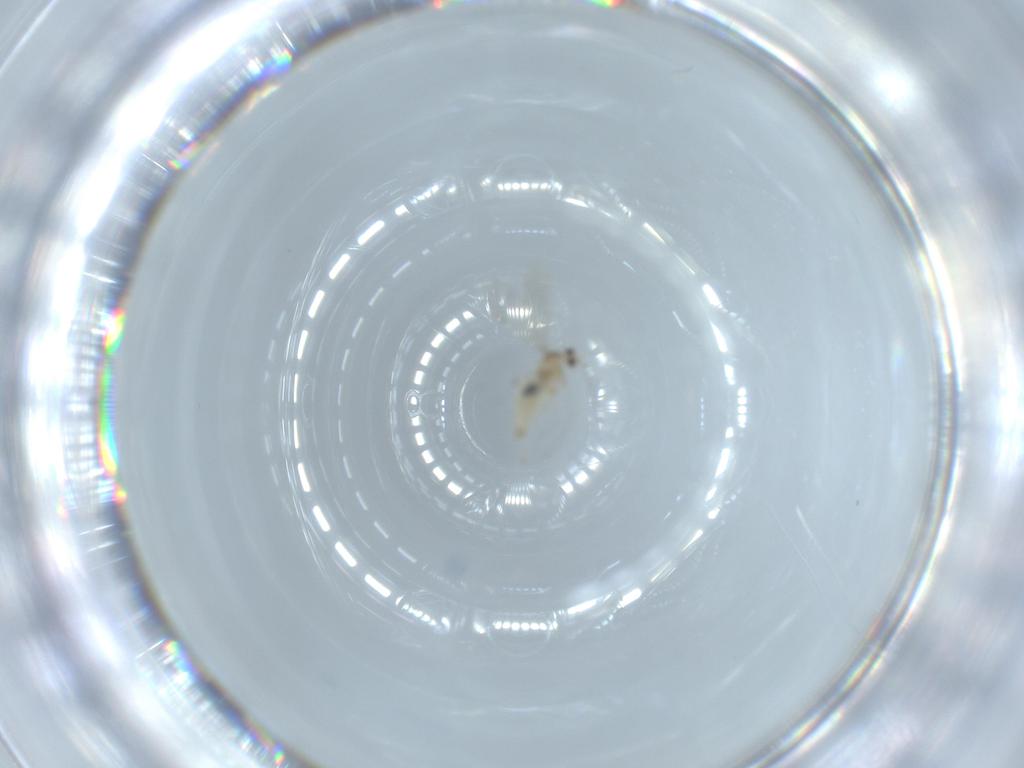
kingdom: Animalia
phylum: Arthropoda
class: Insecta
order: Diptera
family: Cecidomyiidae
